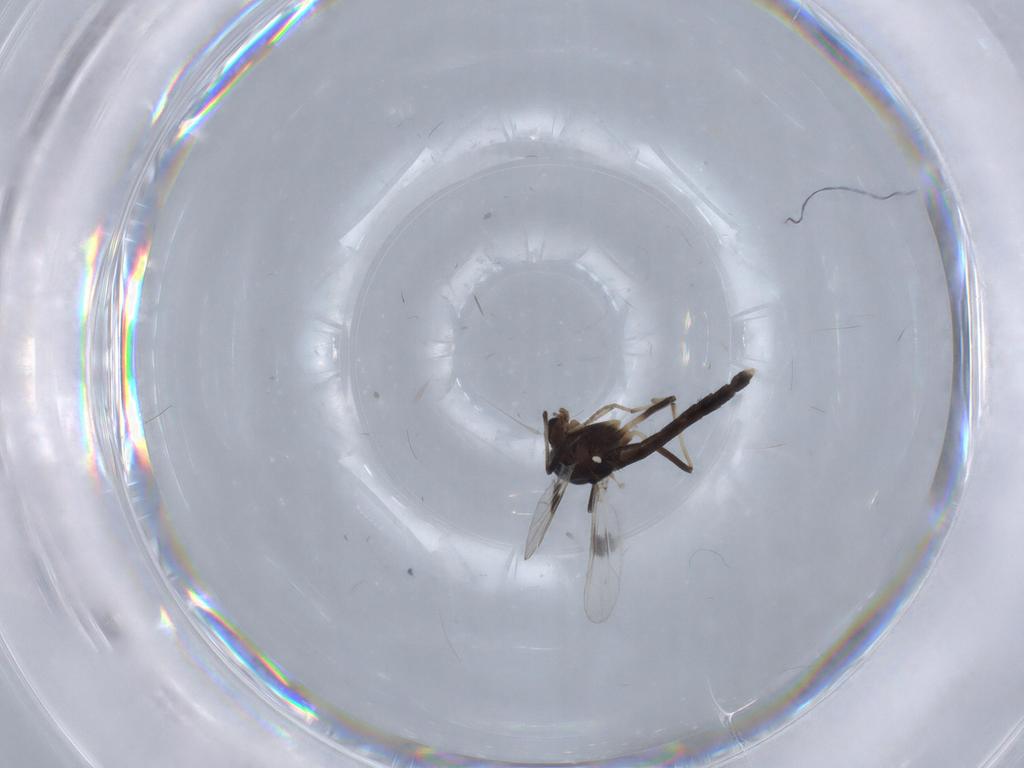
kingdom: Animalia
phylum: Arthropoda
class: Insecta
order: Diptera
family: Chironomidae
